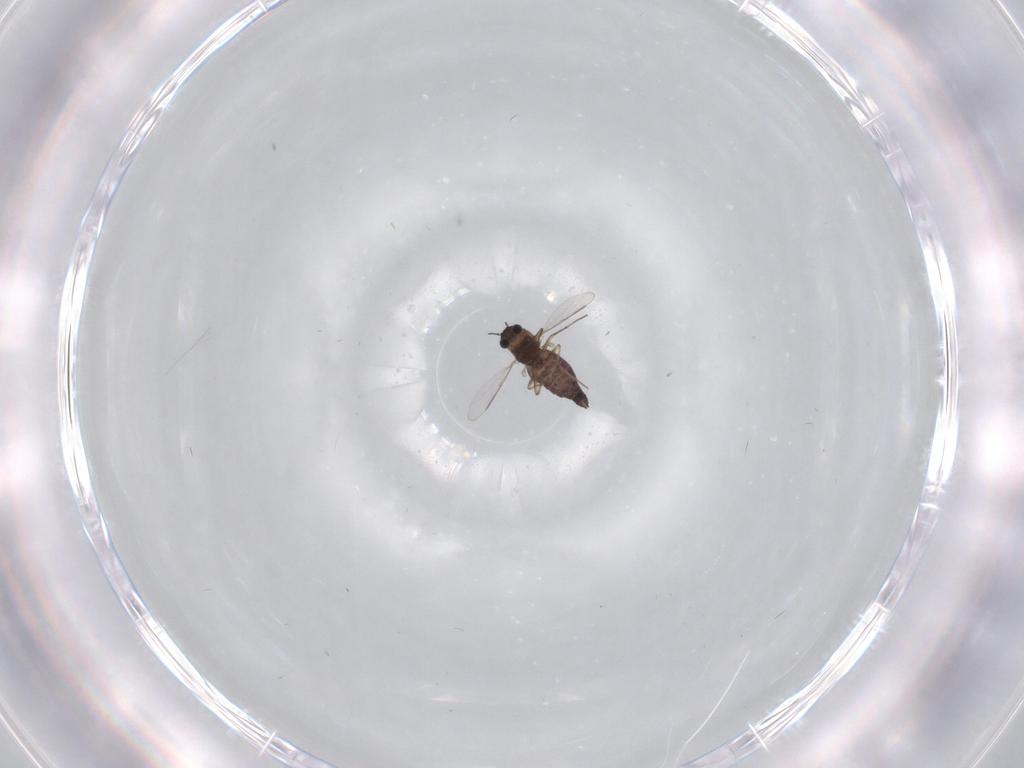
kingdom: Animalia
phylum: Arthropoda
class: Insecta
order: Diptera
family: Chironomidae
